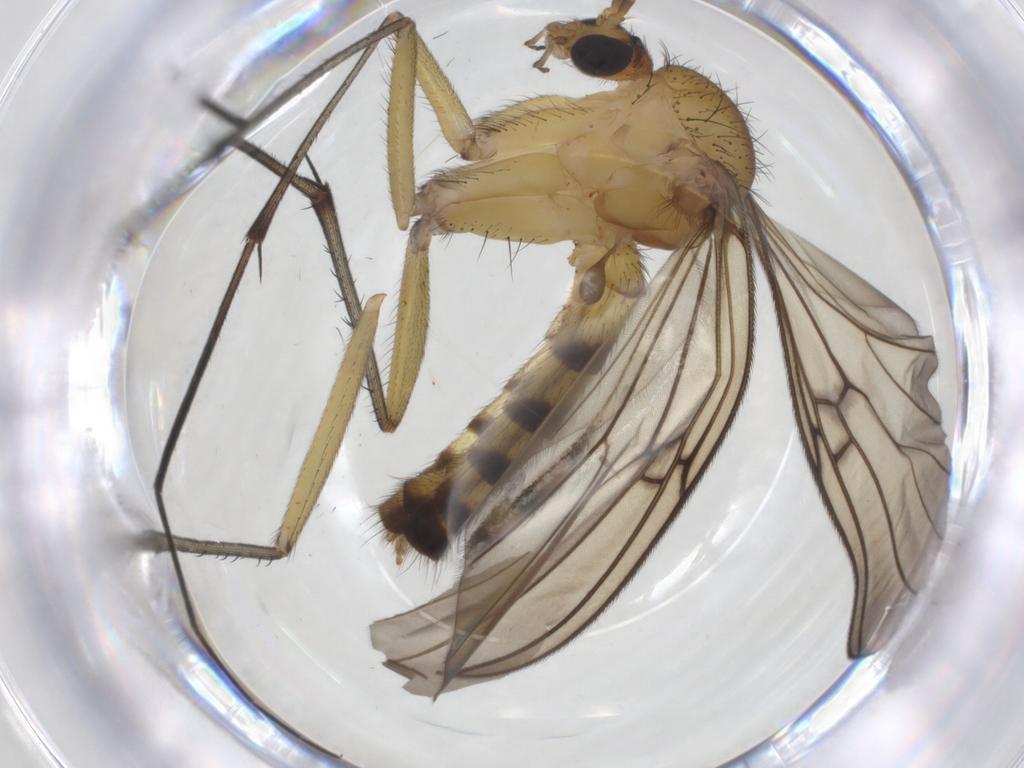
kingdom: Animalia
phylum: Arthropoda
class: Insecta
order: Diptera
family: Mycetophilidae
